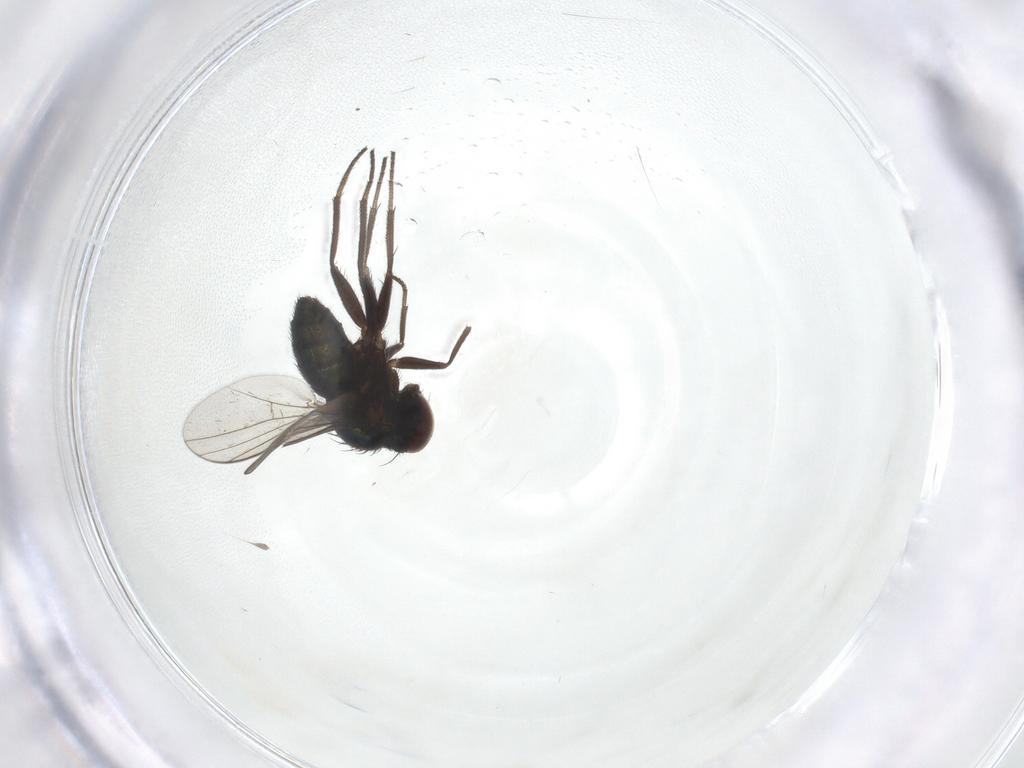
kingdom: Animalia
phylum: Arthropoda
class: Insecta
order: Diptera
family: Dolichopodidae
